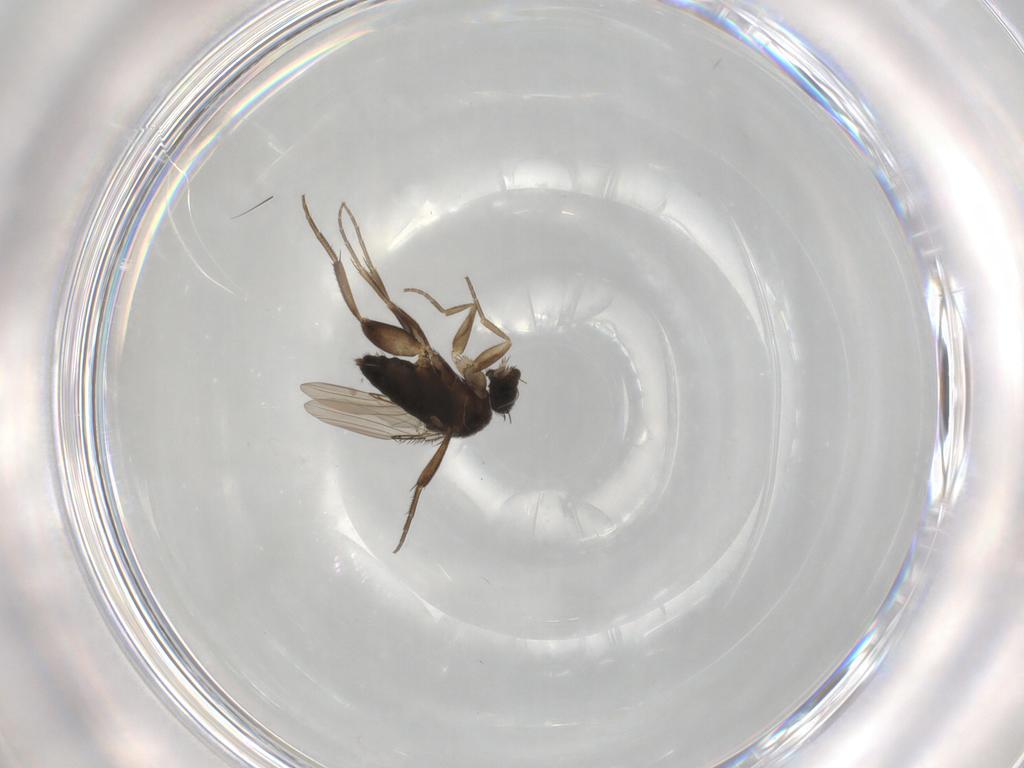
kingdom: Animalia
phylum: Arthropoda
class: Insecta
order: Diptera
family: Phoridae
